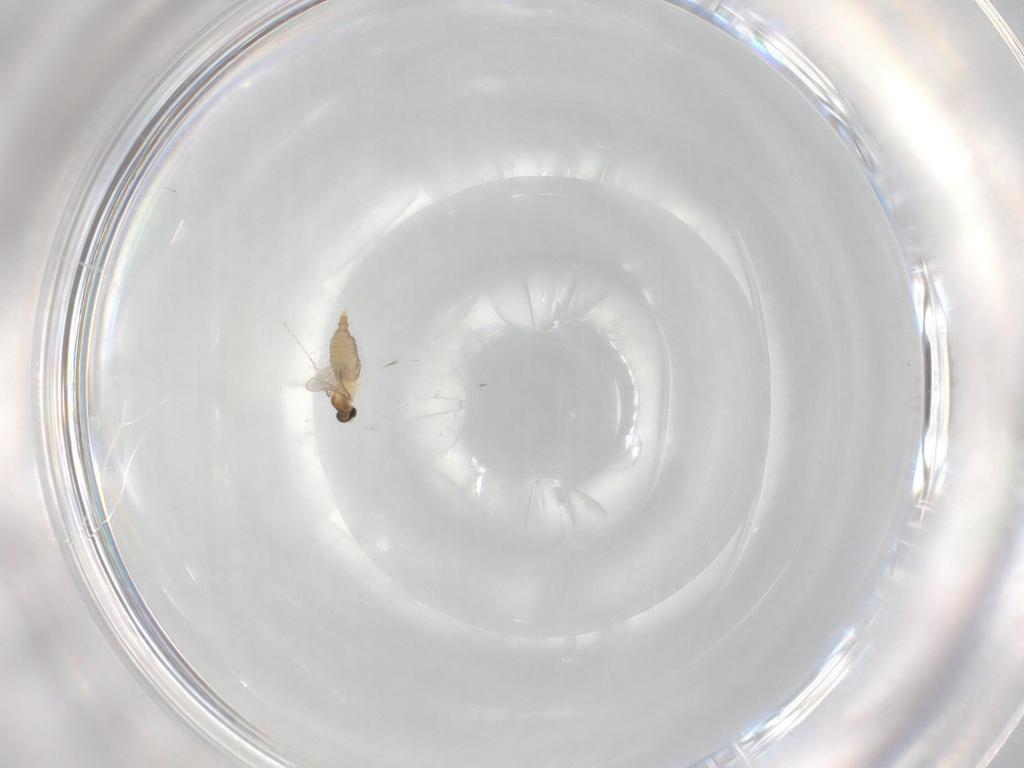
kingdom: Animalia
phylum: Arthropoda
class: Insecta
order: Diptera
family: Cecidomyiidae
